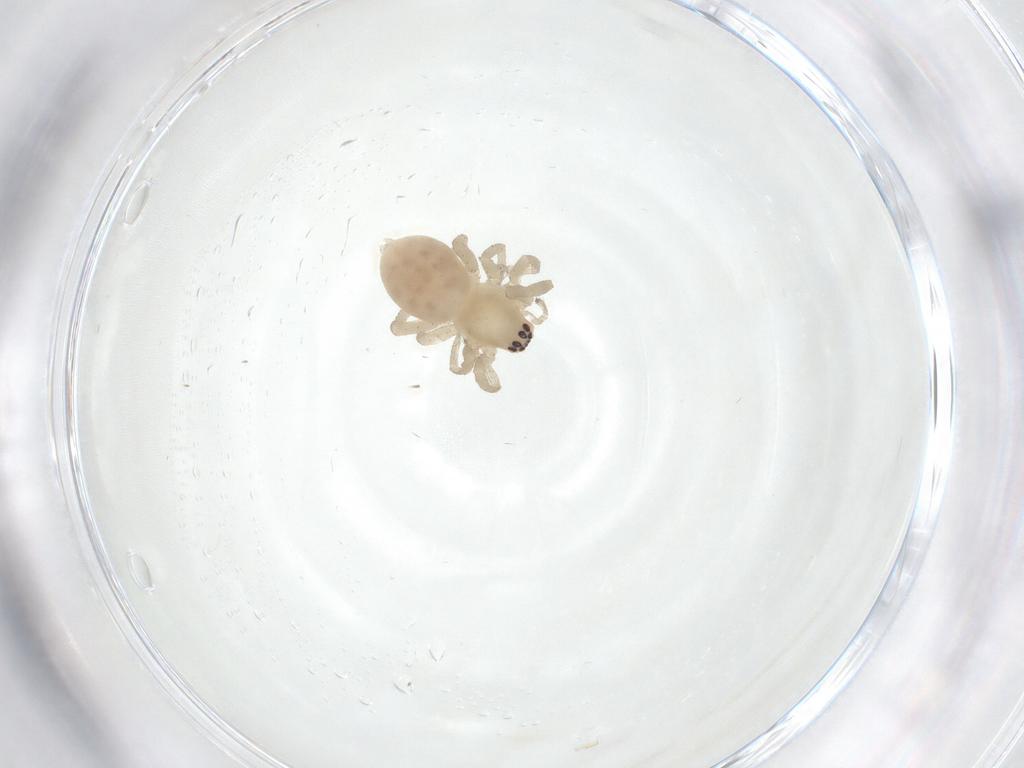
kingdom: Animalia
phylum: Arthropoda
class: Arachnida
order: Araneae
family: Anyphaenidae
